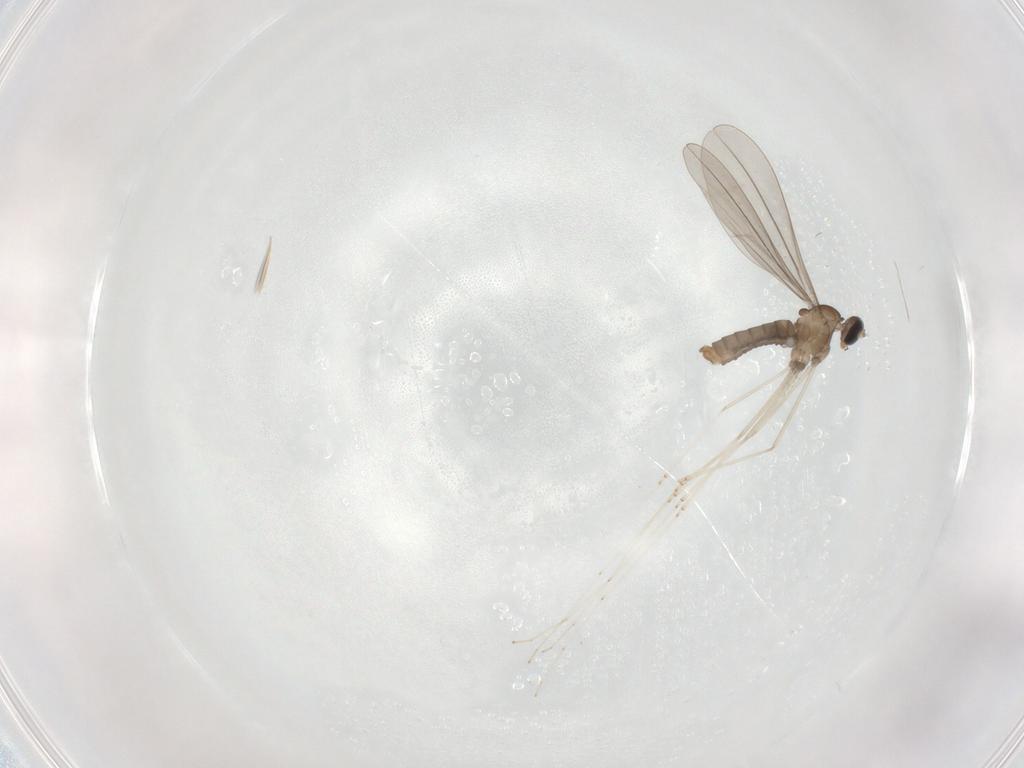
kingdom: Animalia
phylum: Arthropoda
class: Insecta
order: Diptera
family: Cecidomyiidae
